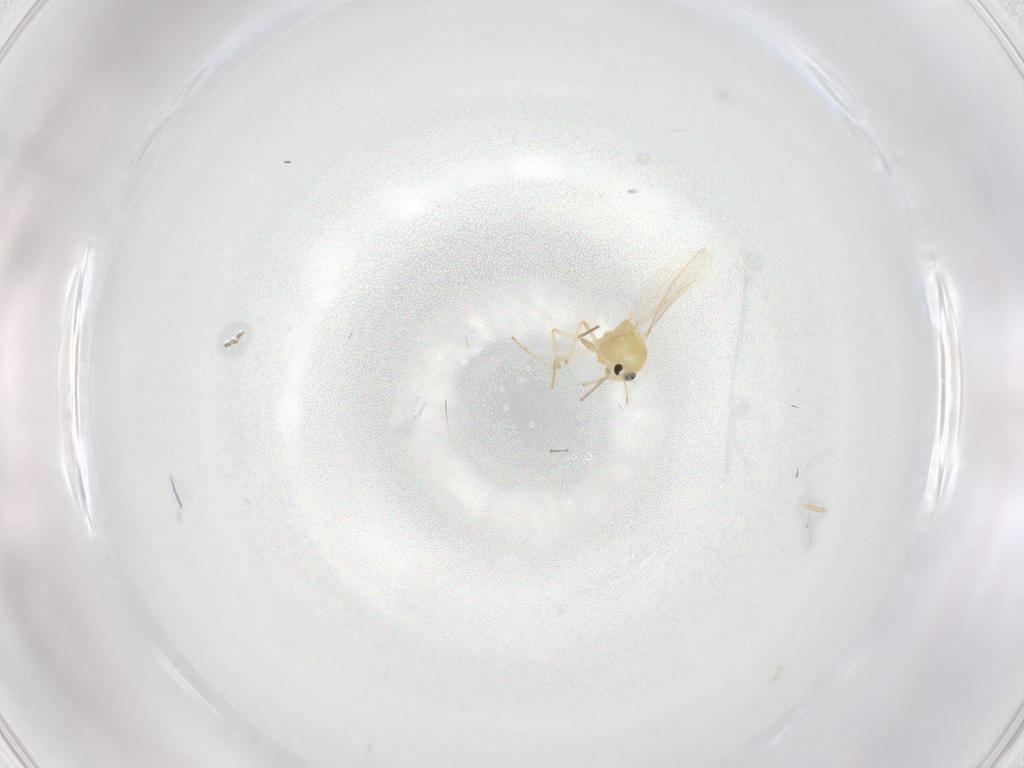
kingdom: Animalia
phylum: Arthropoda
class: Insecta
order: Diptera
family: Chironomidae
